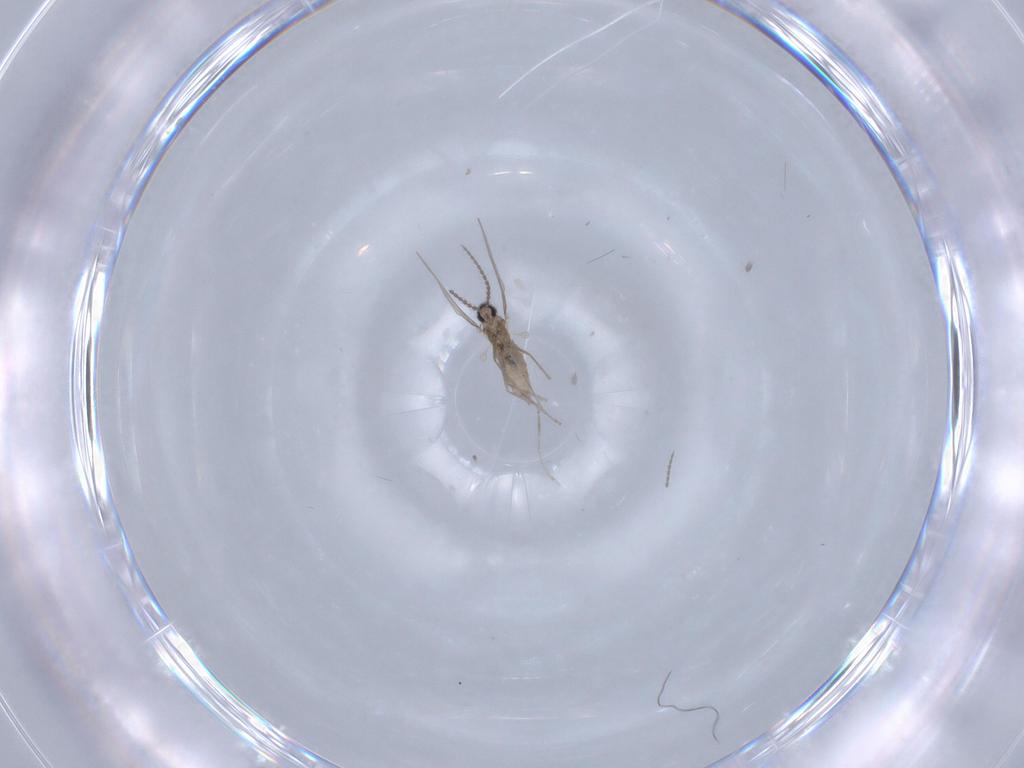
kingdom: Animalia
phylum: Arthropoda
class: Insecta
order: Diptera
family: Cecidomyiidae
